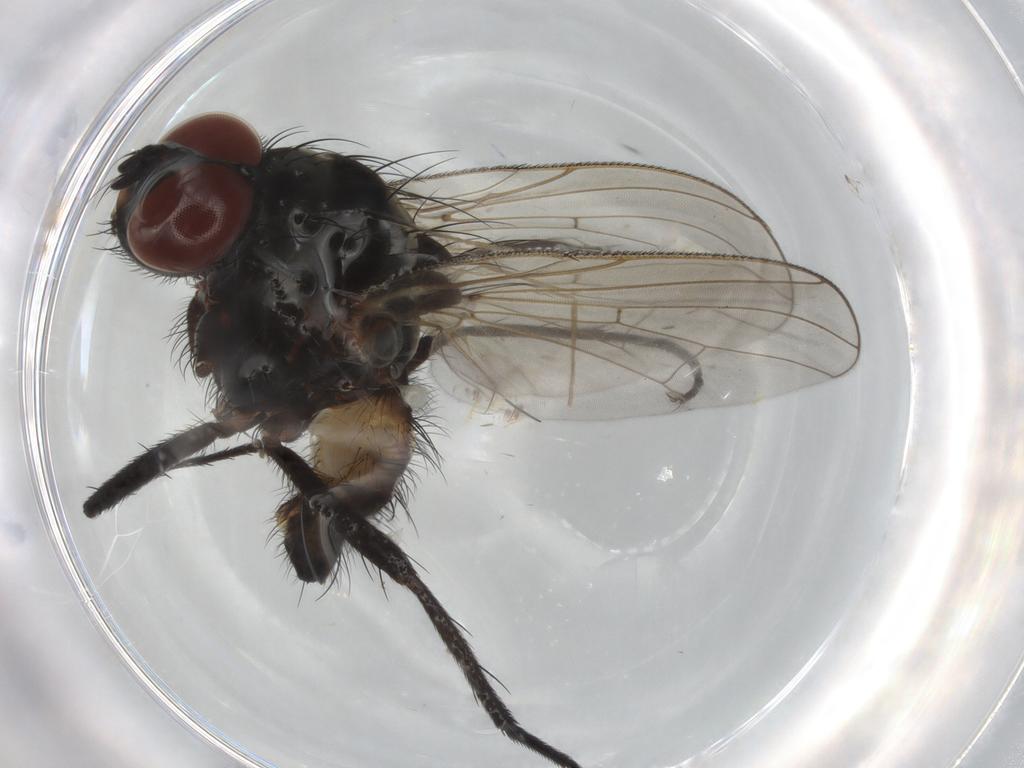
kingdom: Animalia
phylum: Arthropoda
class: Insecta
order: Diptera
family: Anthomyiidae
